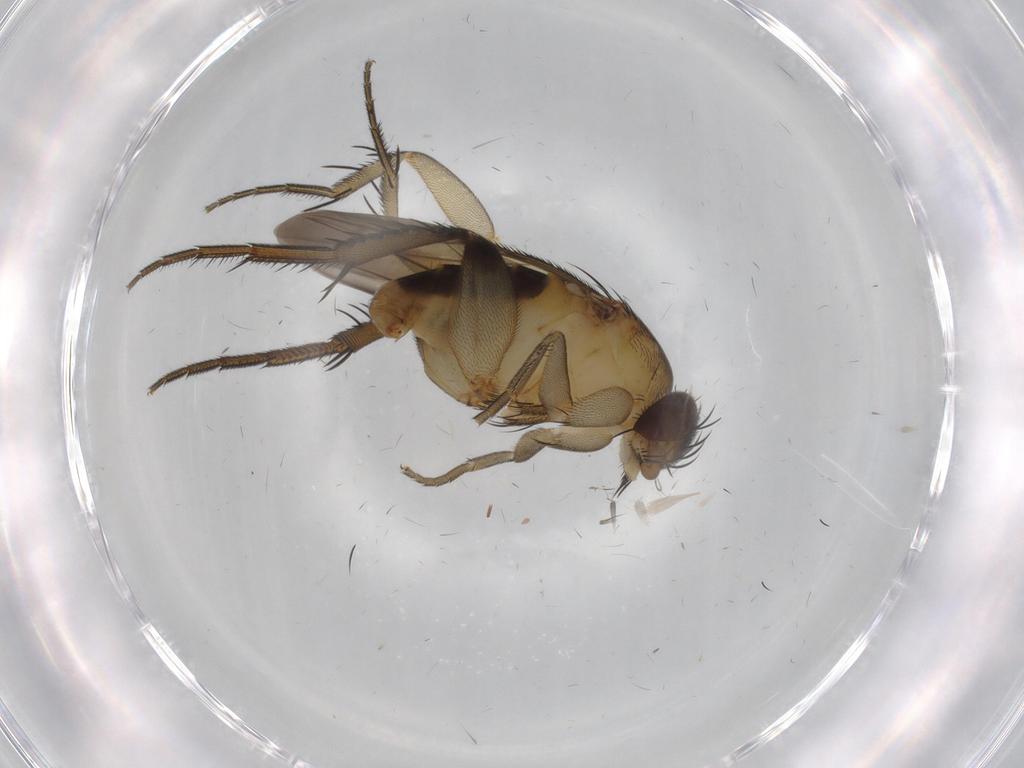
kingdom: Animalia
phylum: Arthropoda
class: Insecta
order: Diptera
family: Phoridae
